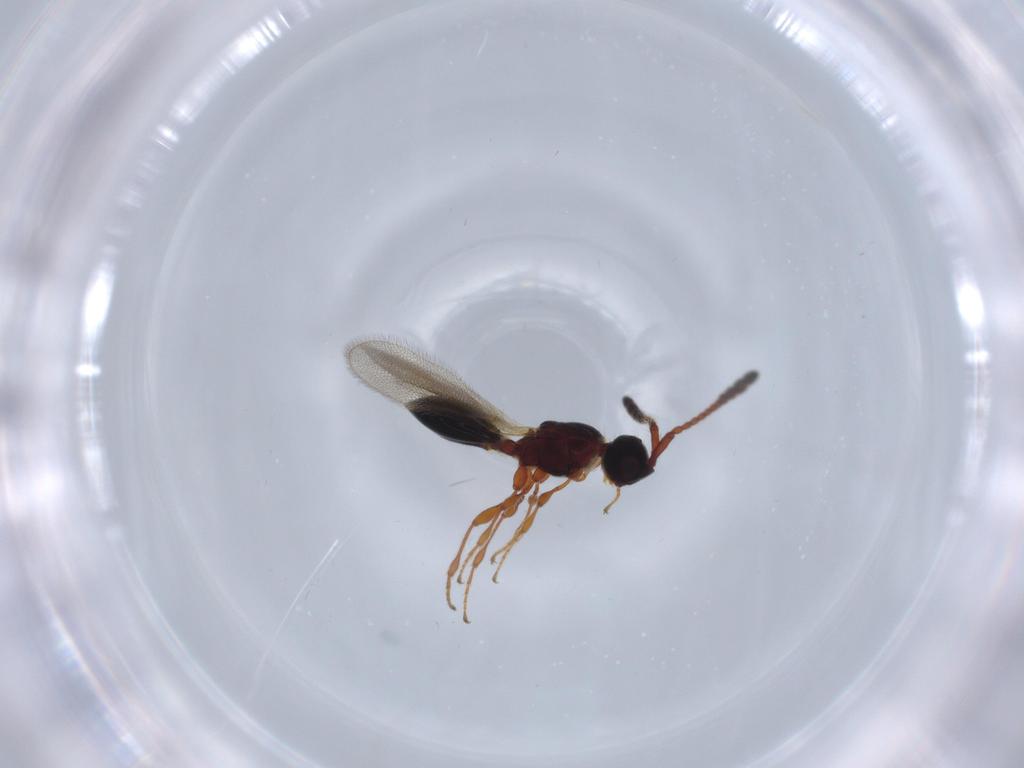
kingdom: Animalia
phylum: Arthropoda
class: Insecta
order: Hymenoptera
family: Diapriidae
